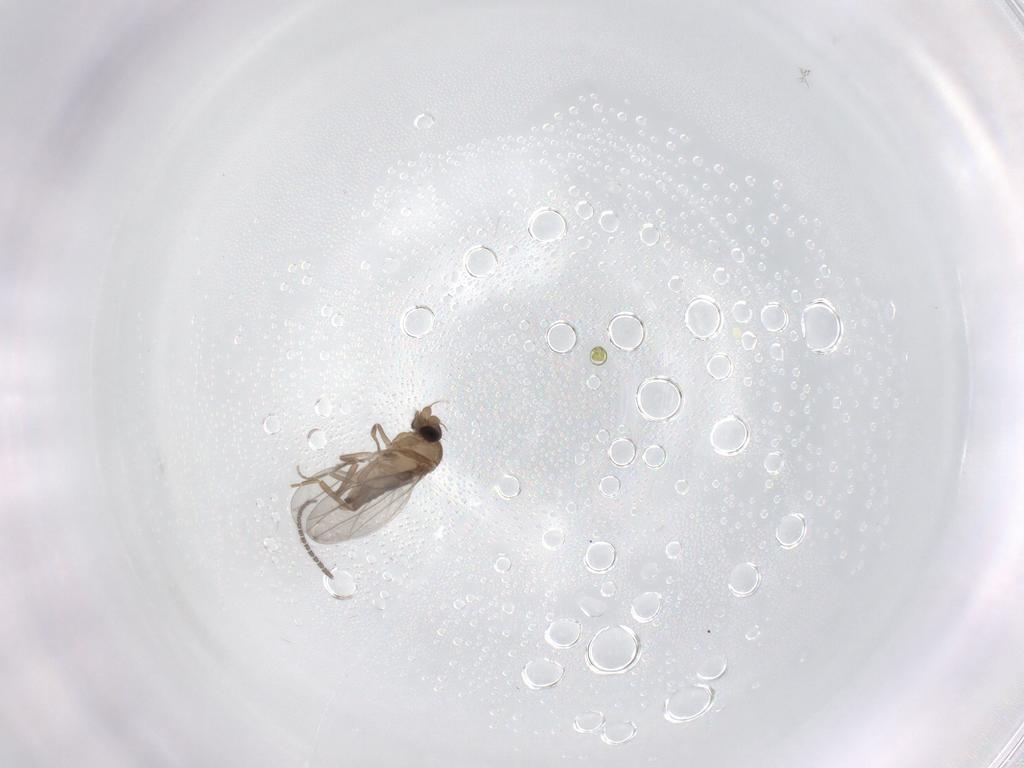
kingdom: Animalia
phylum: Arthropoda
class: Insecta
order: Diptera
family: Sciaridae
